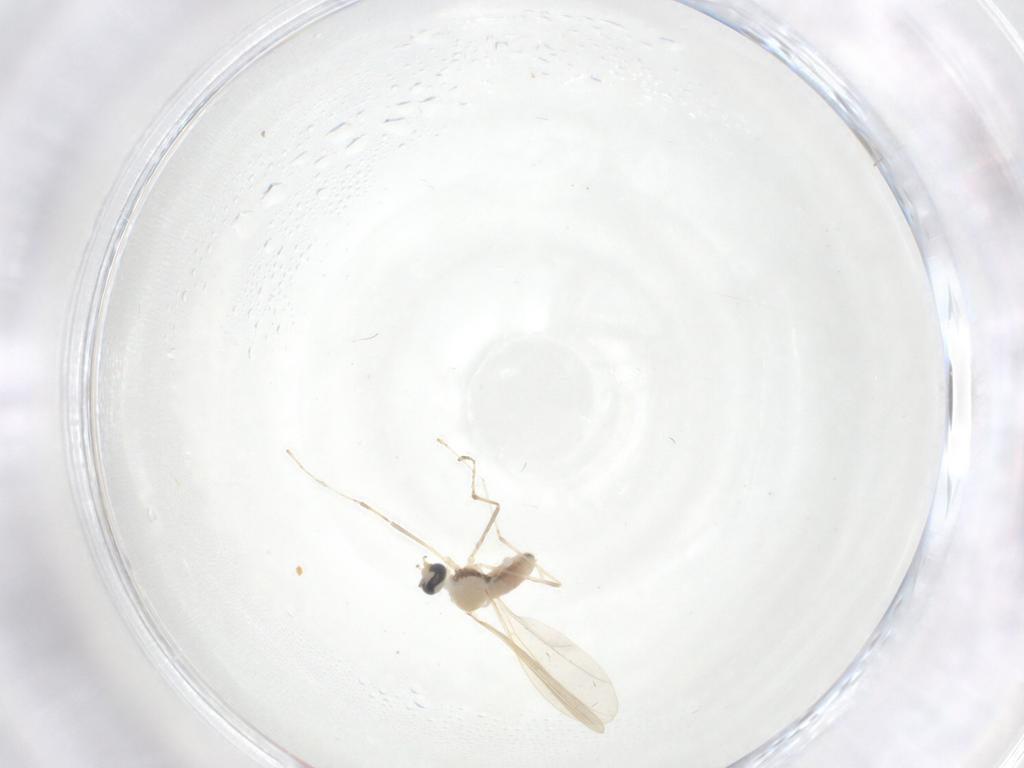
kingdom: Animalia
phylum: Arthropoda
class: Insecta
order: Diptera
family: Cecidomyiidae
